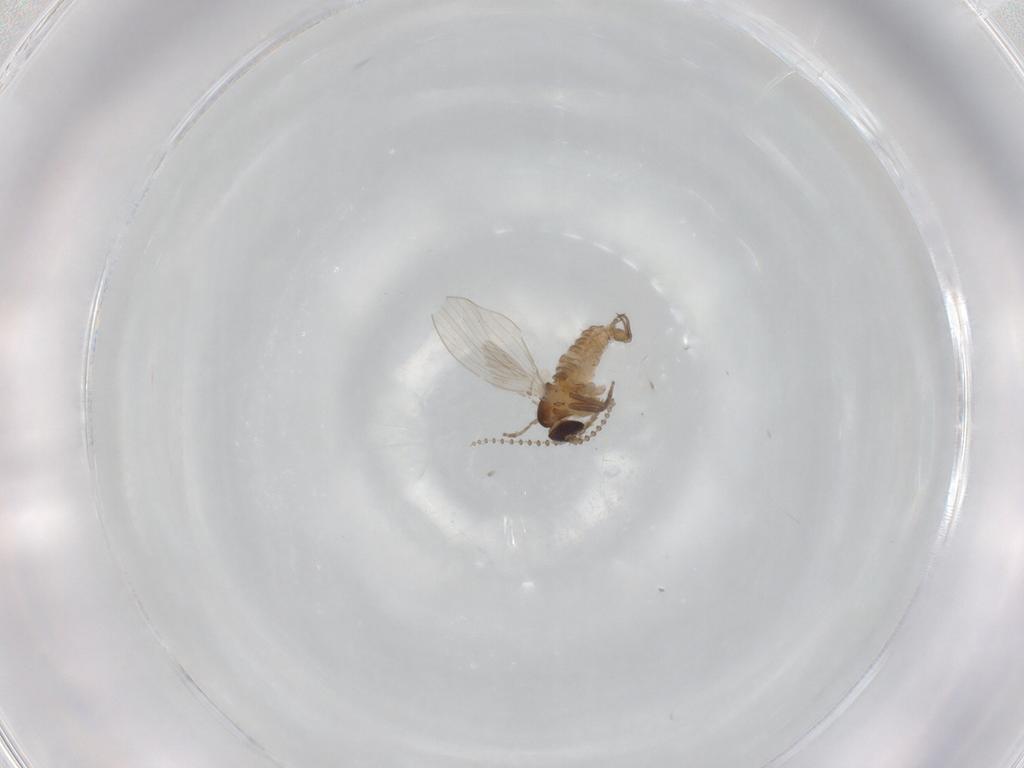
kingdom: Animalia
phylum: Arthropoda
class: Insecta
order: Diptera
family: Psychodidae
